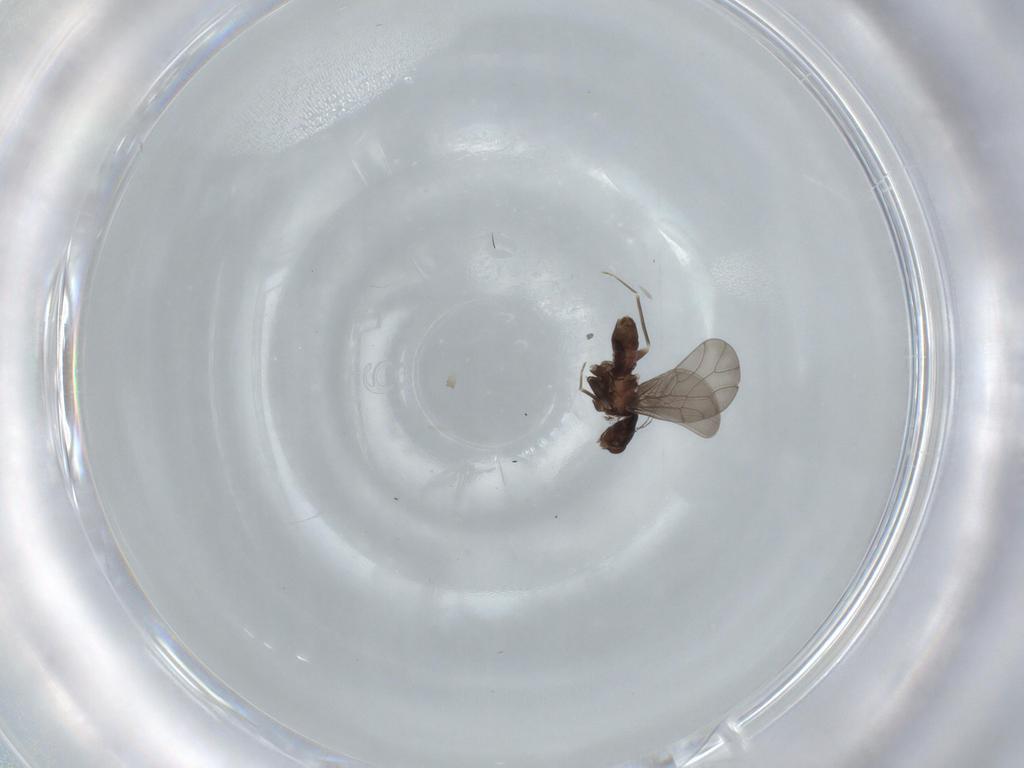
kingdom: Animalia
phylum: Arthropoda
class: Insecta
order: Psocodea
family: Lepidopsocidae
